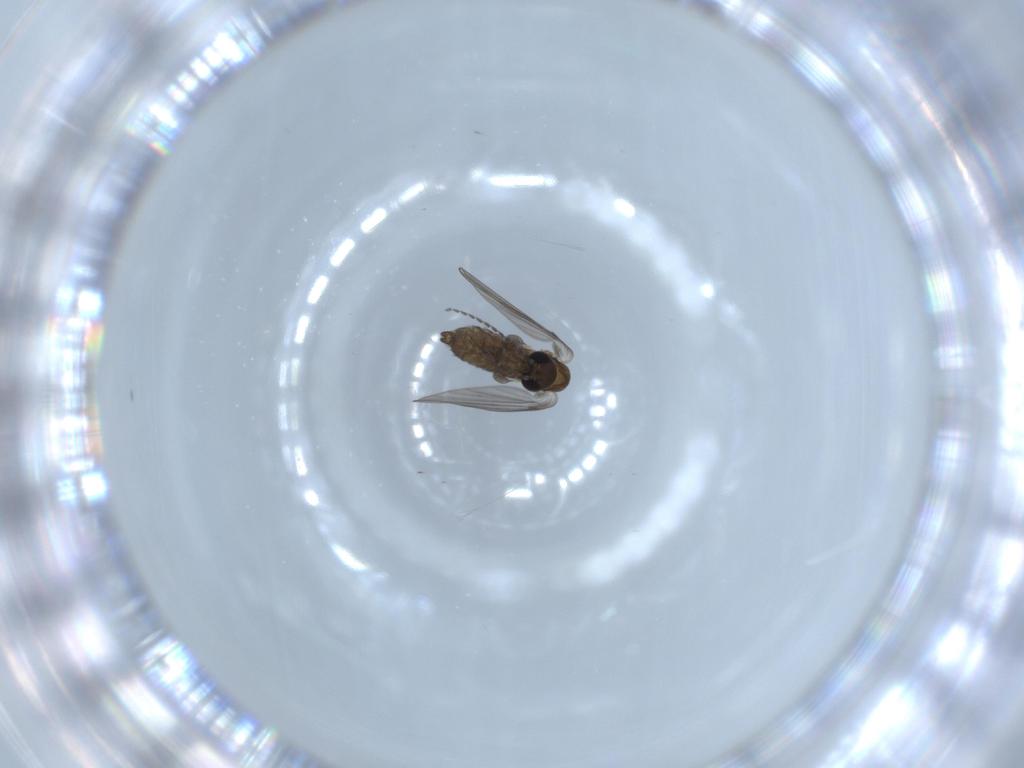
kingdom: Animalia
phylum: Arthropoda
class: Insecta
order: Diptera
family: Psychodidae
